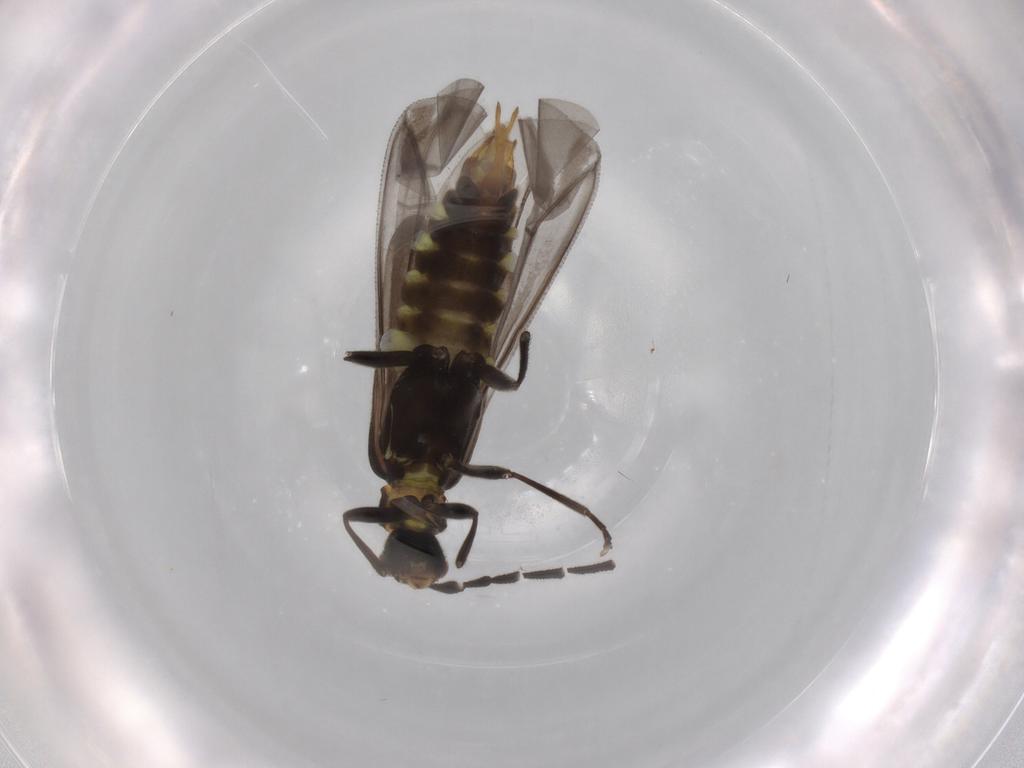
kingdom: Animalia
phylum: Arthropoda
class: Insecta
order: Coleoptera
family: Cantharidae
